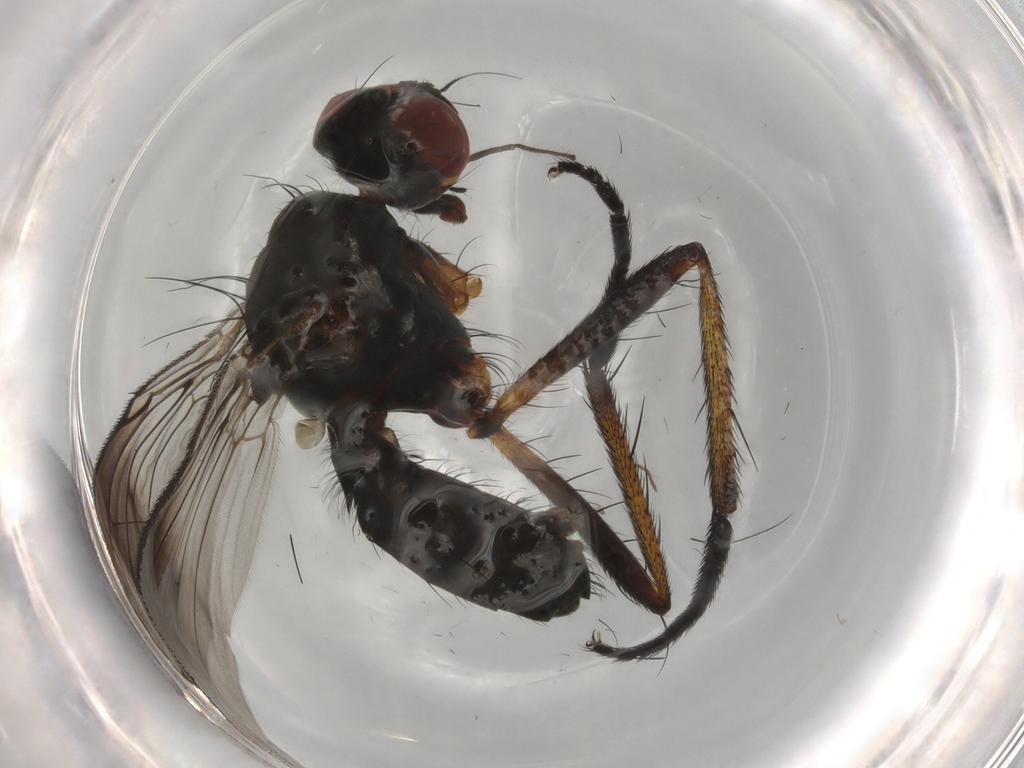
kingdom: Animalia
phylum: Arthropoda
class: Insecta
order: Diptera
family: Anthomyiidae
